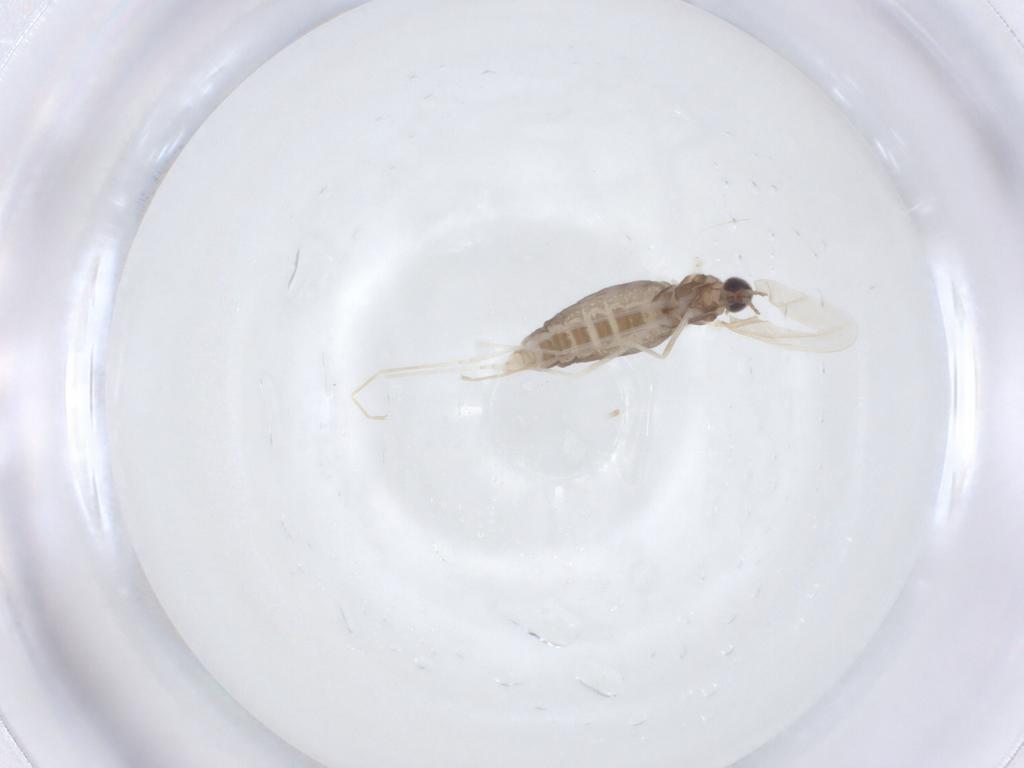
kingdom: Animalia
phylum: Arthropoda
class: Insecta
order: Diptera
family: Cecidomyiidae
